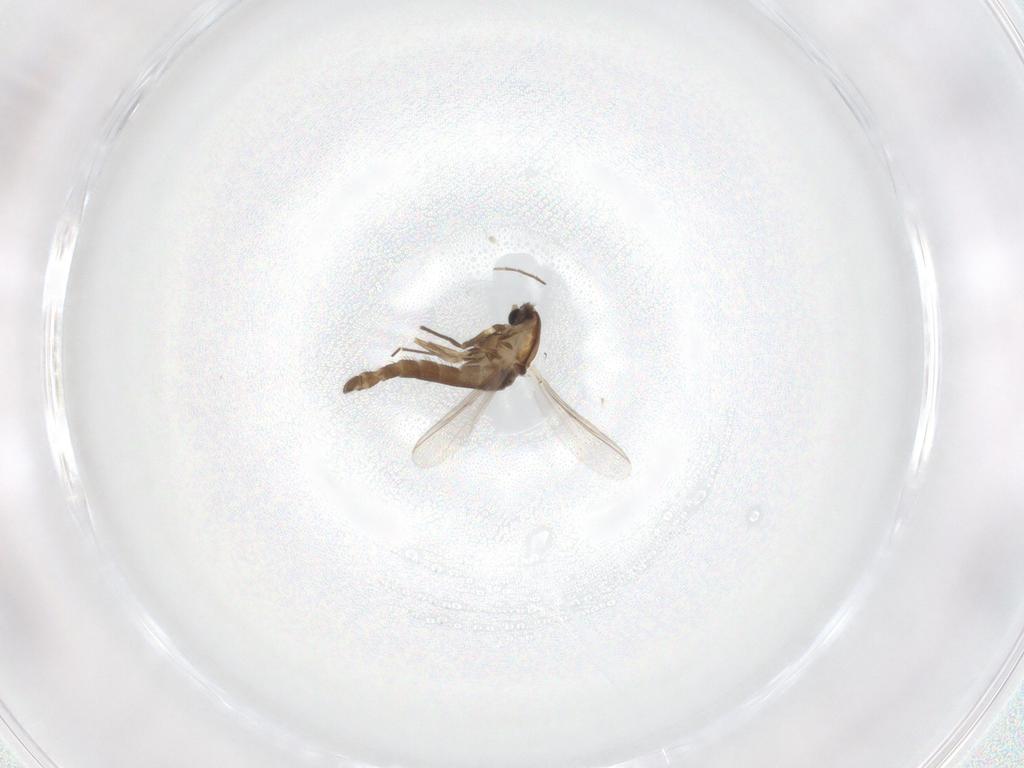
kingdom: Animalia
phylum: Arthropoda
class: Insecta
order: Diptera
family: Chironomidae
